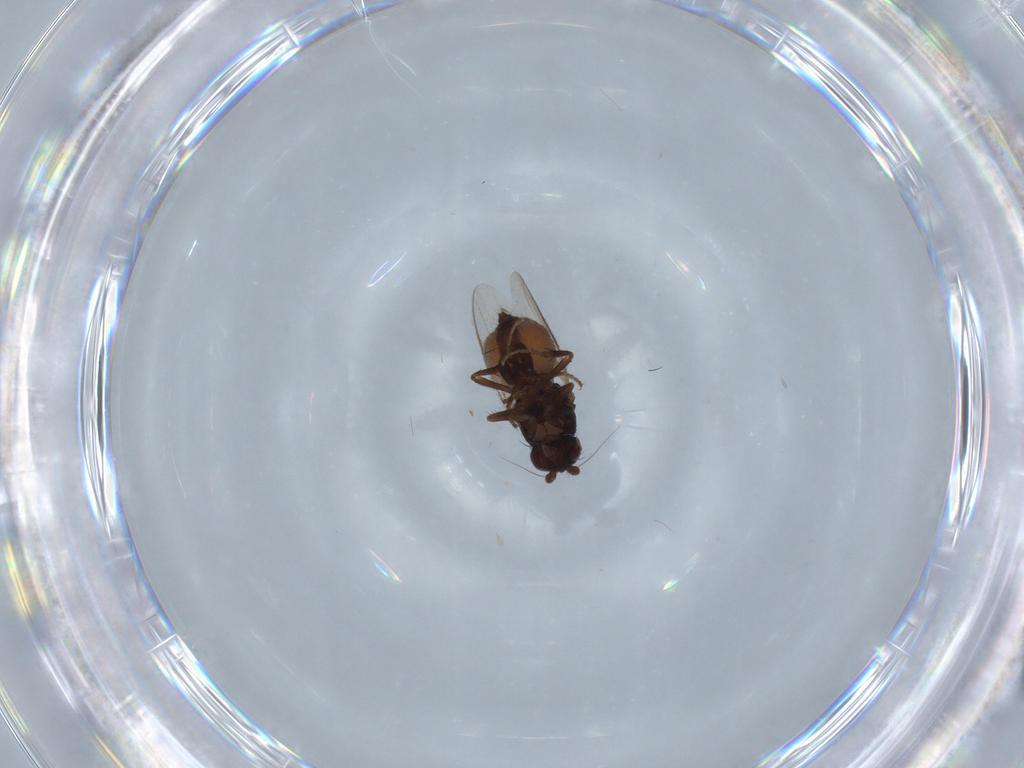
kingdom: Animalia
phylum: Arthropoda
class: Insecta
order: Diptera
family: Sphaeroceridae
